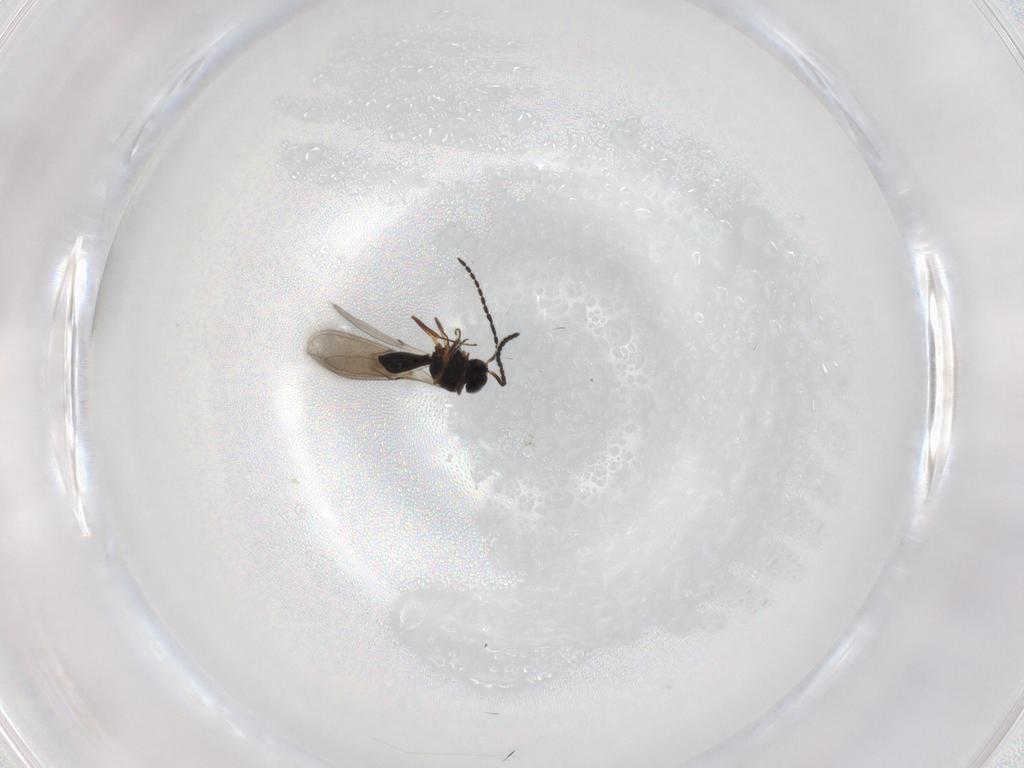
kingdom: Animalia
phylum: Arthropoda
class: Insecta
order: Hymenoptera
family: Scelionidae
